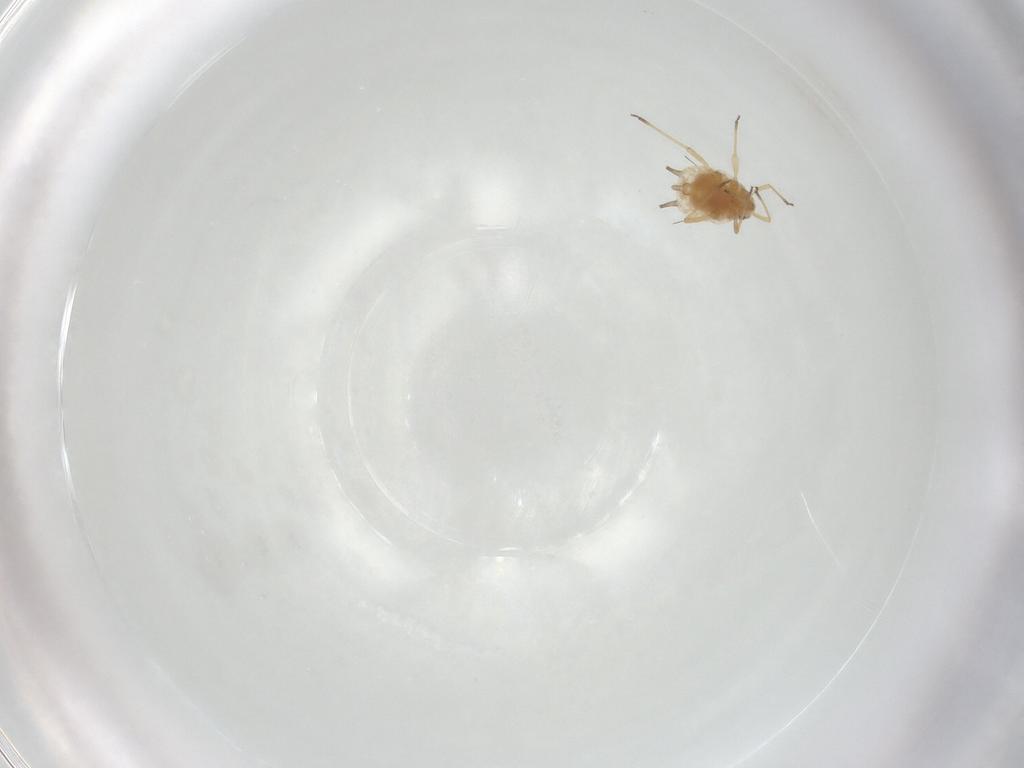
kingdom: Animalia
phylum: Arthropoda
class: Insecta
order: Hemiptera
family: Aphididae
